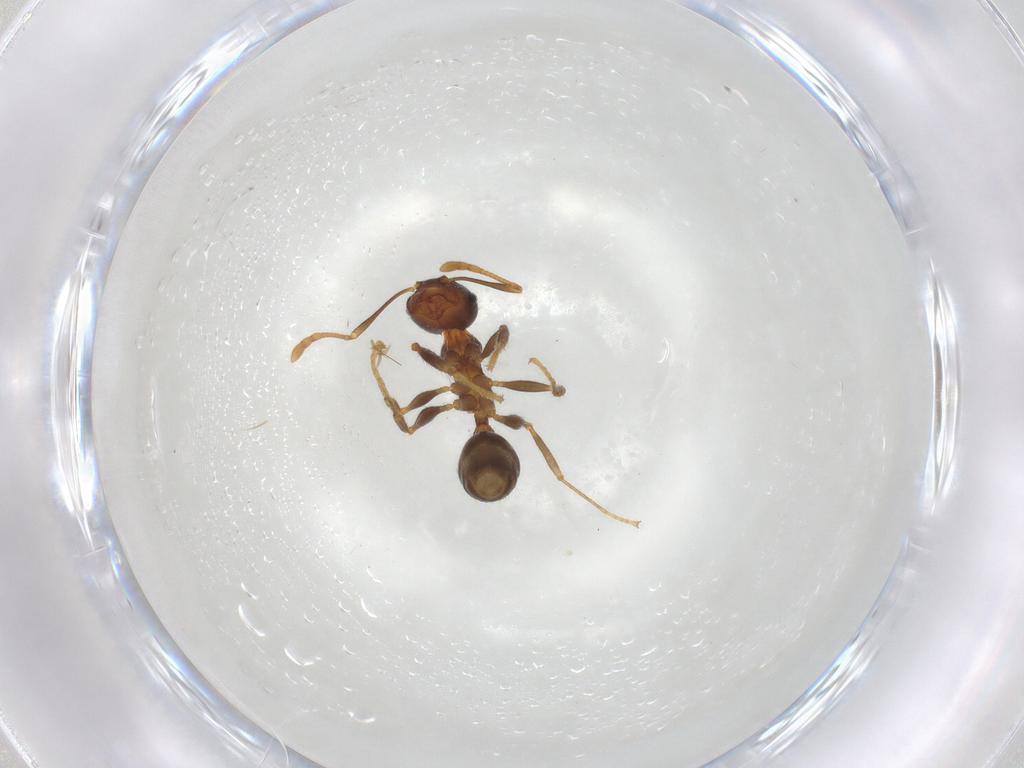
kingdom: Animalia
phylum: Arthropoda
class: Insecta
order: Hymenoptera
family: Formicidae
